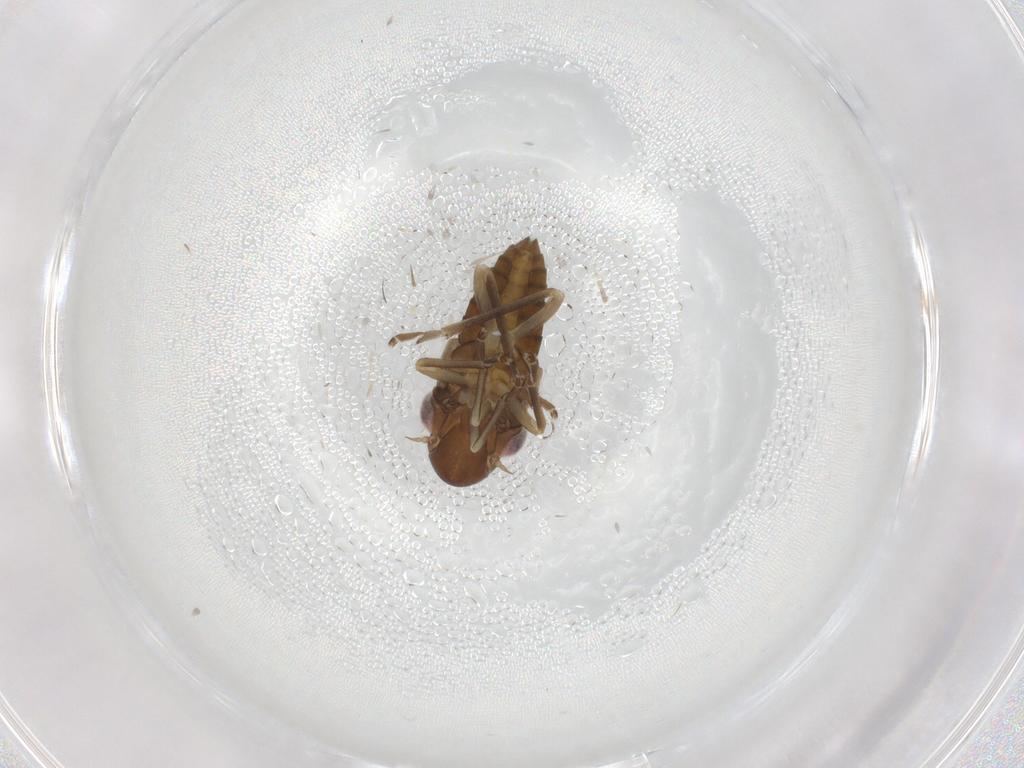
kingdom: Animalia
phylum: Arthropoda
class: Insecta
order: Hemiptera
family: Cicadellidae
